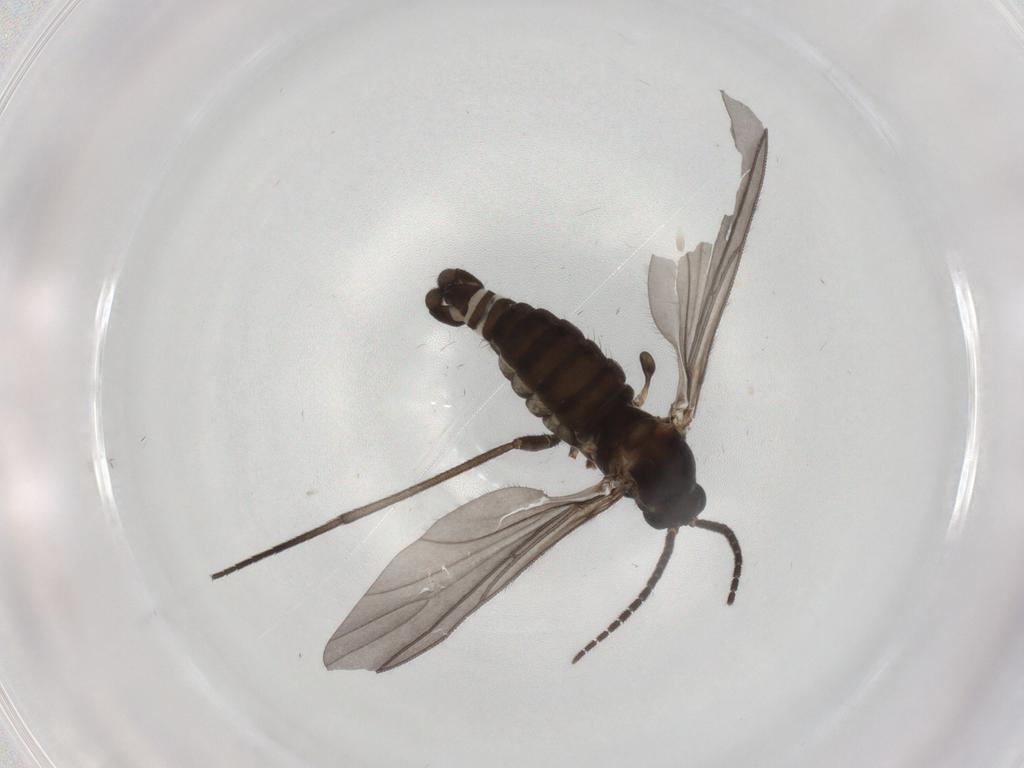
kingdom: Animalia
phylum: Arthropoda
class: Insecta
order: Diptera
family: Sciaridae
